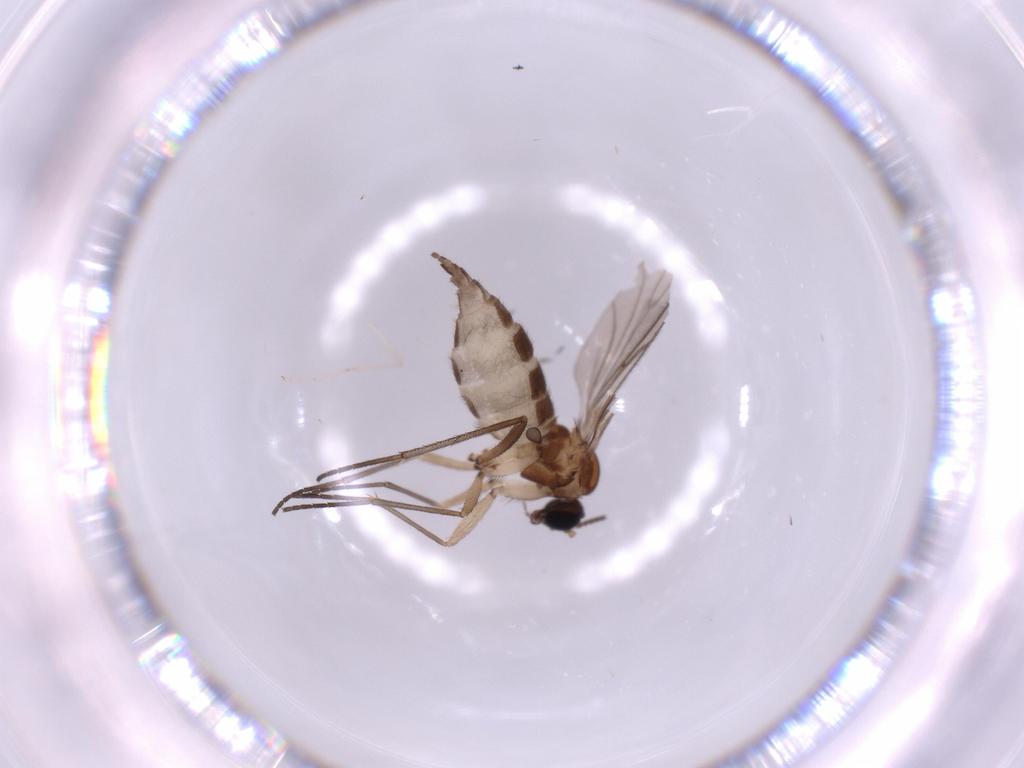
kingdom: Animalia
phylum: Arthropoda
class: Insecta
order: Diptera
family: Sciaridae
